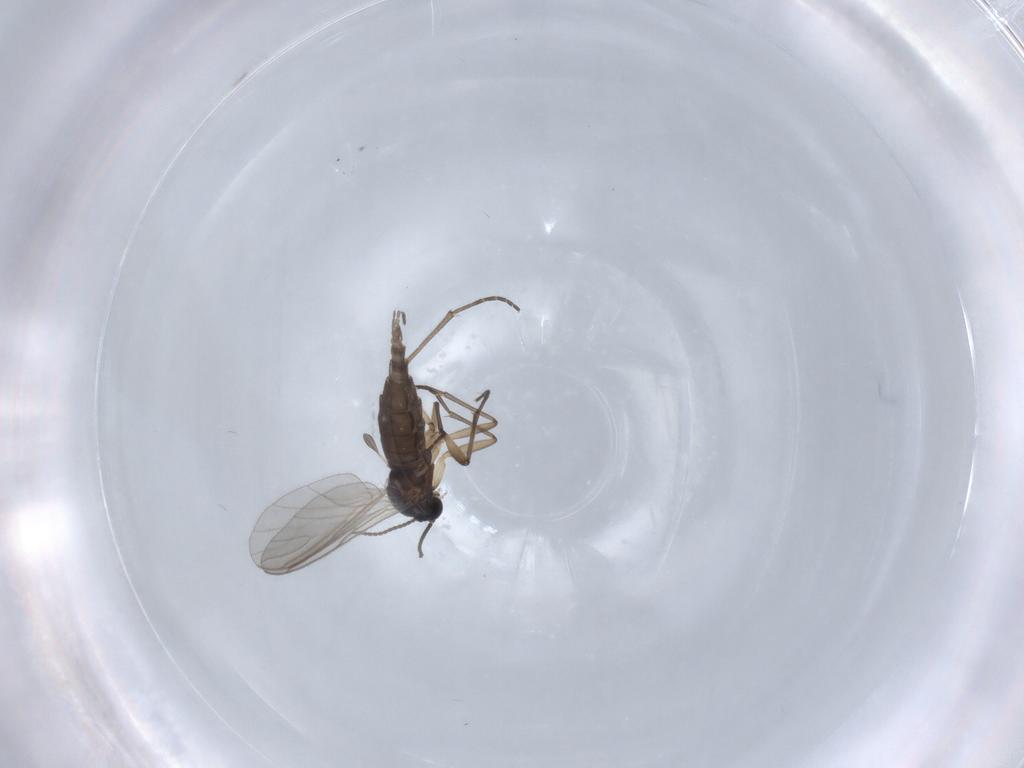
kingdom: Animalia
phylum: Arthropoda
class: Insecta
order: Diptera
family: Sciaridae
